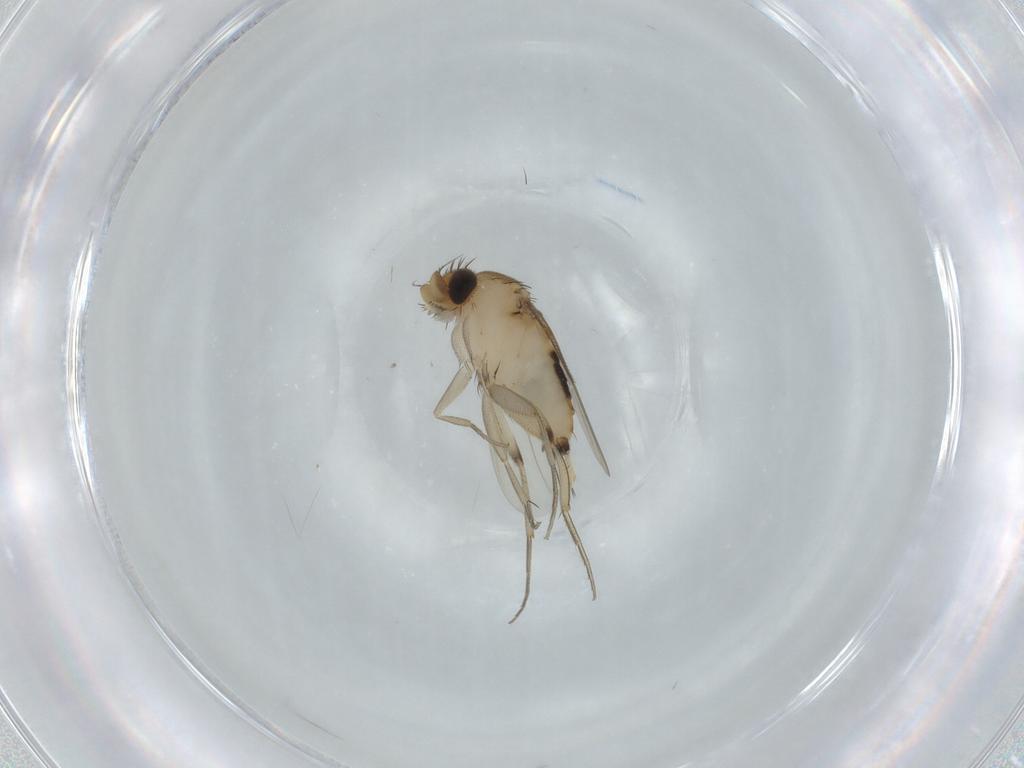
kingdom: Animalia
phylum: Arthropoda
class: Insecta
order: Diptera
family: Phoridae
